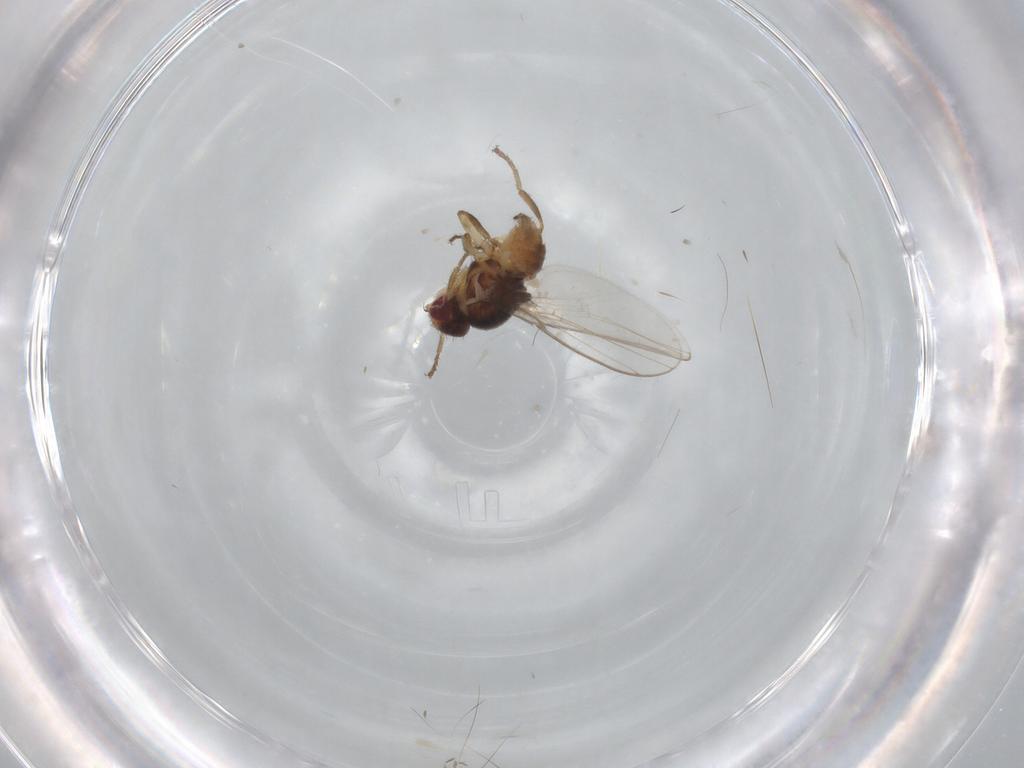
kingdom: Animalia
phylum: Arthropoda
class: Insecta
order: Diptera
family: Chloropidae
